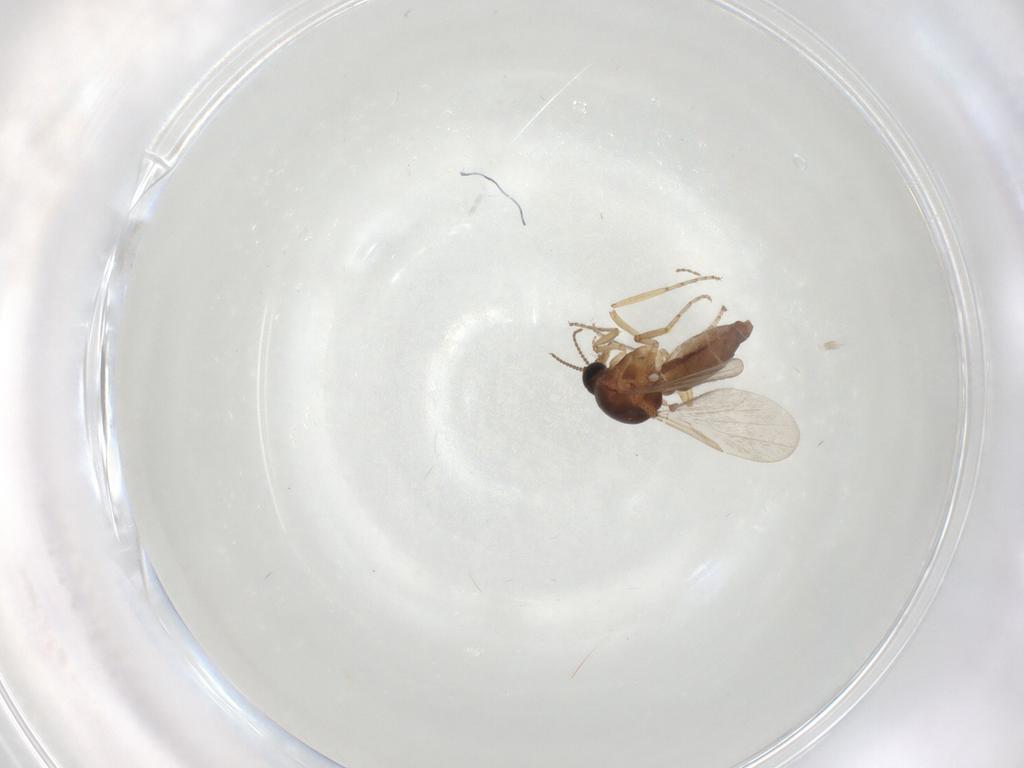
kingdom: Animalia
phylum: Arthropoda
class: Insecta
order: Diptera
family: Ceratopogonidae
